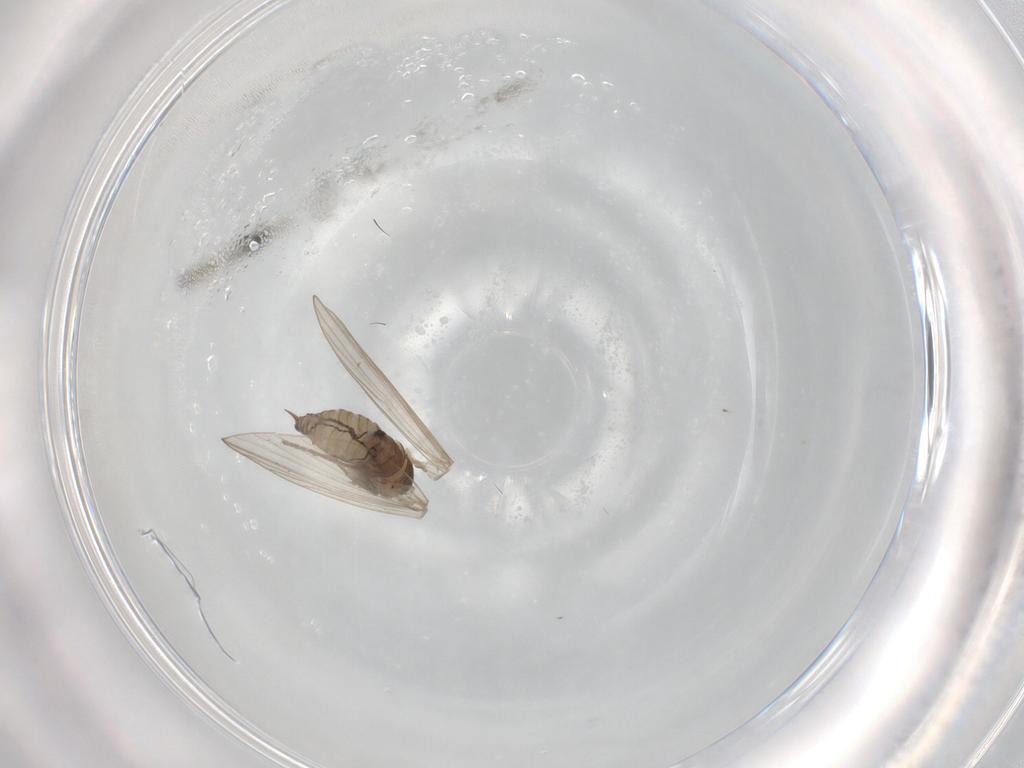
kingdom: Animalia
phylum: Arthropoda
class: Insecta
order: Diptera
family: Psychodidae
